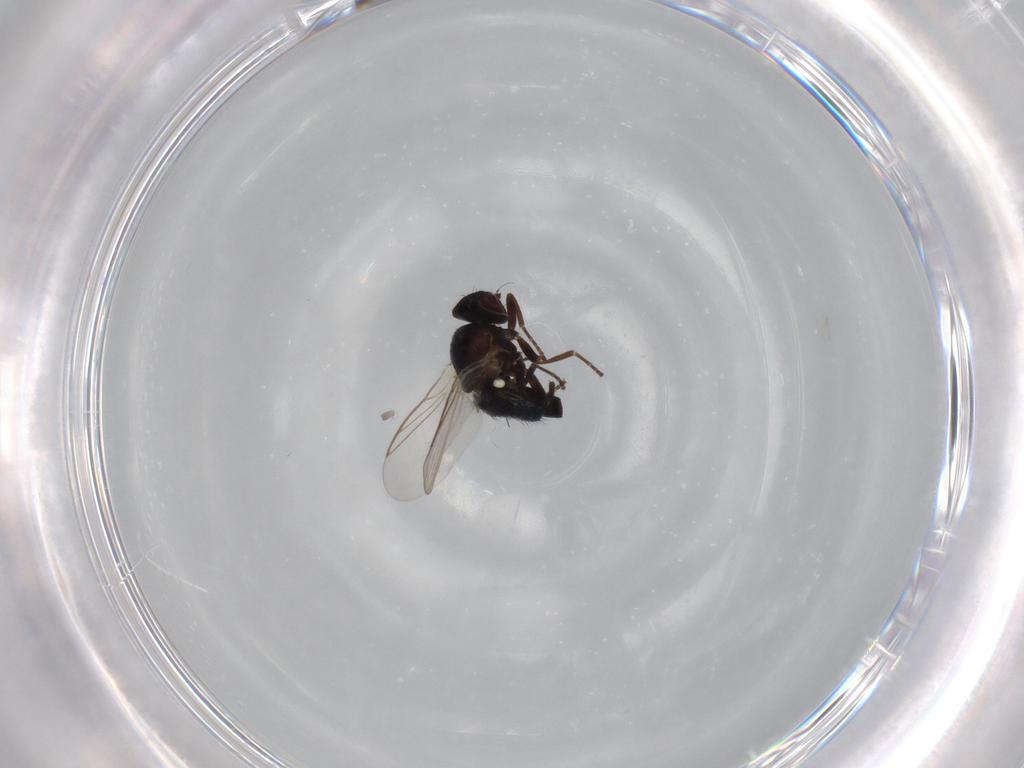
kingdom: Animalia
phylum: Arthropoda
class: Insecta
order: Diptera
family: Agromyzidae
